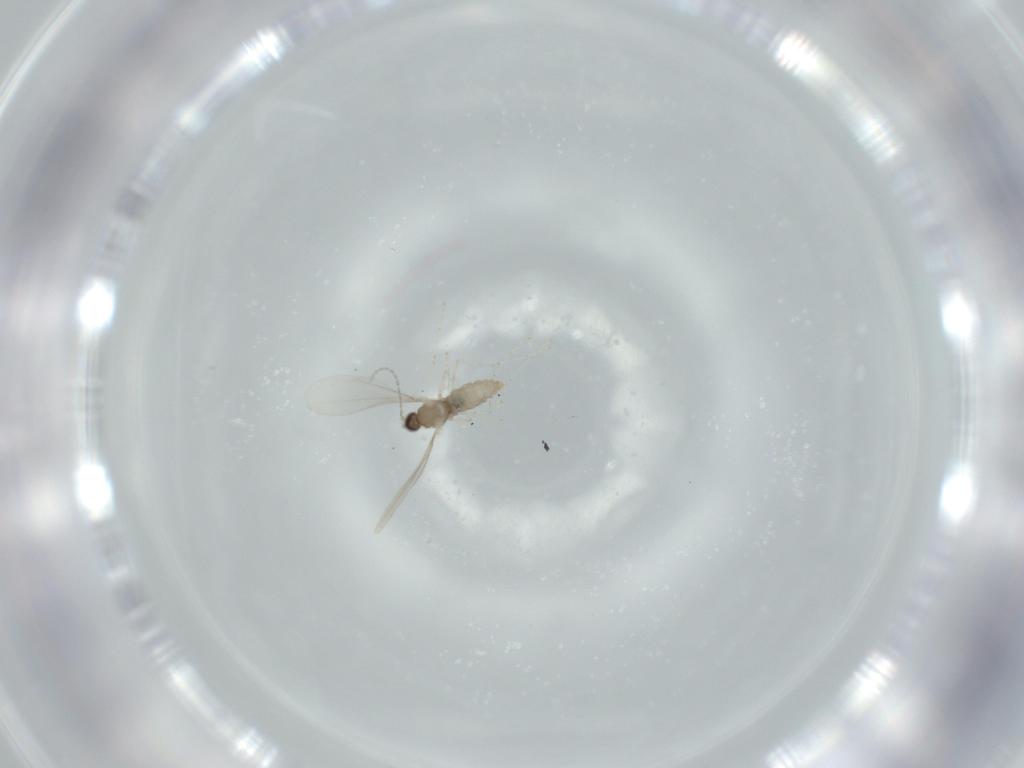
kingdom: Animalia
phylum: Arthropoda
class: Insecta
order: Diptera
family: Cecidomyiidae
